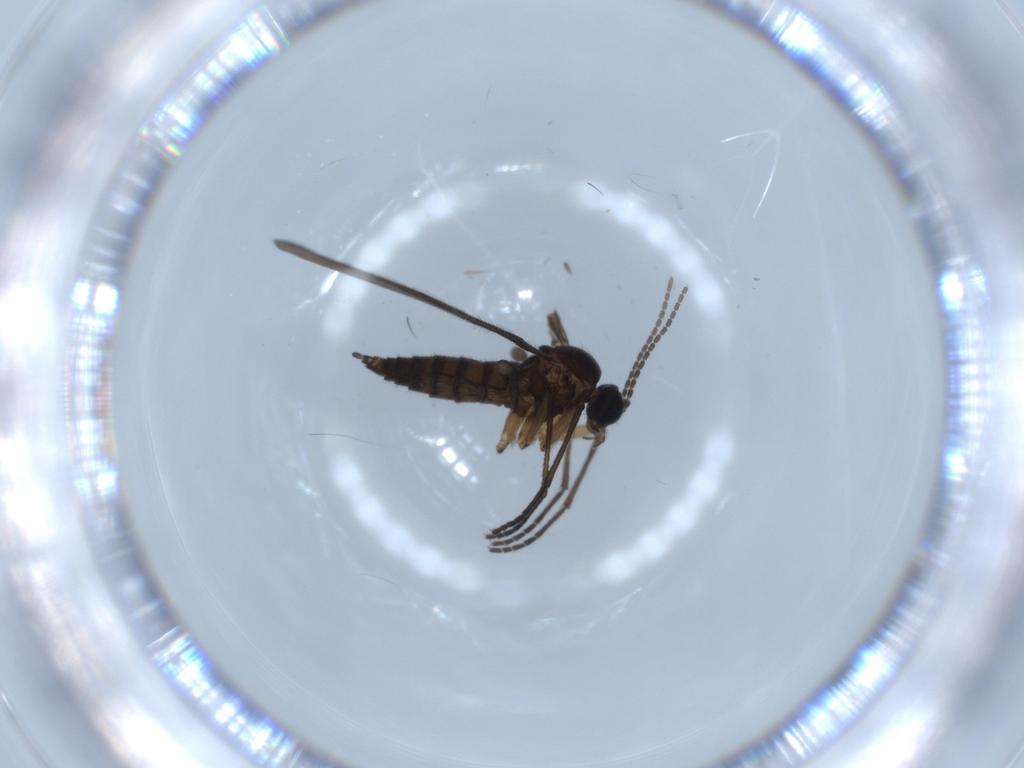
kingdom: Animalia
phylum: Arthropoda
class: Insecta
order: Diptera
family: Sciaridae
